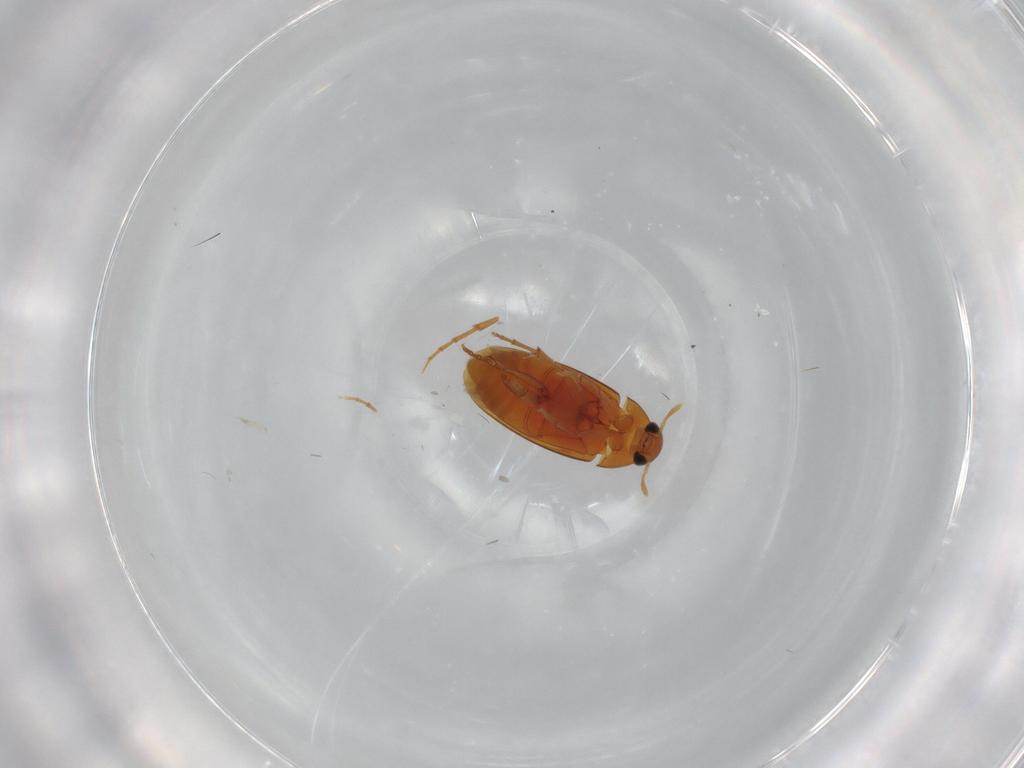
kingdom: Animalia
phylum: Arthropoda
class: Insecta
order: Coleoptera
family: Scraptiidae
